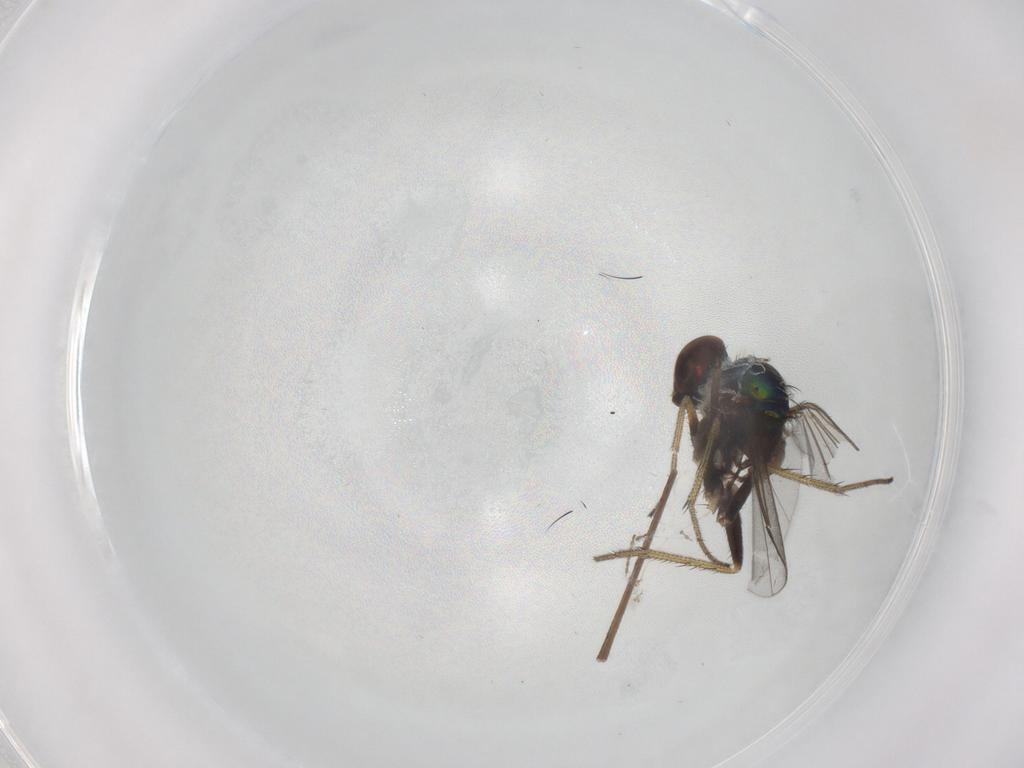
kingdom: Animalia
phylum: Arthropoda
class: Insecta
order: Diptera
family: Limoniidae
